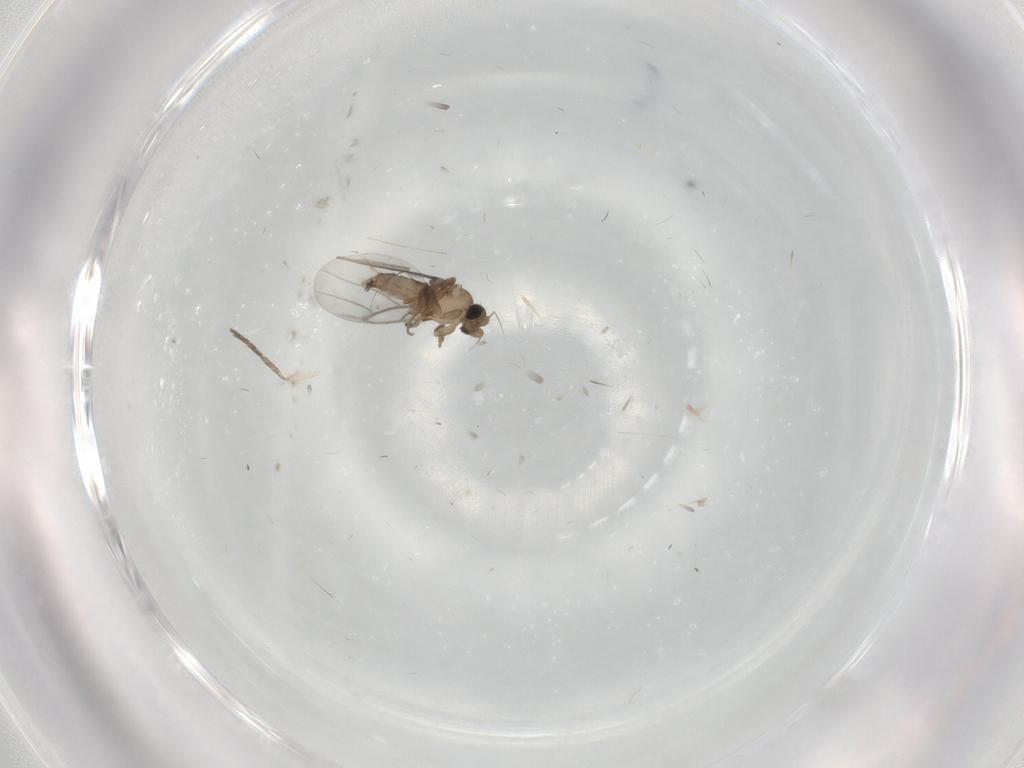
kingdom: Animalia
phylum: Arthropoda
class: Insecta
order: Diptera
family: Cecidomyiidae
